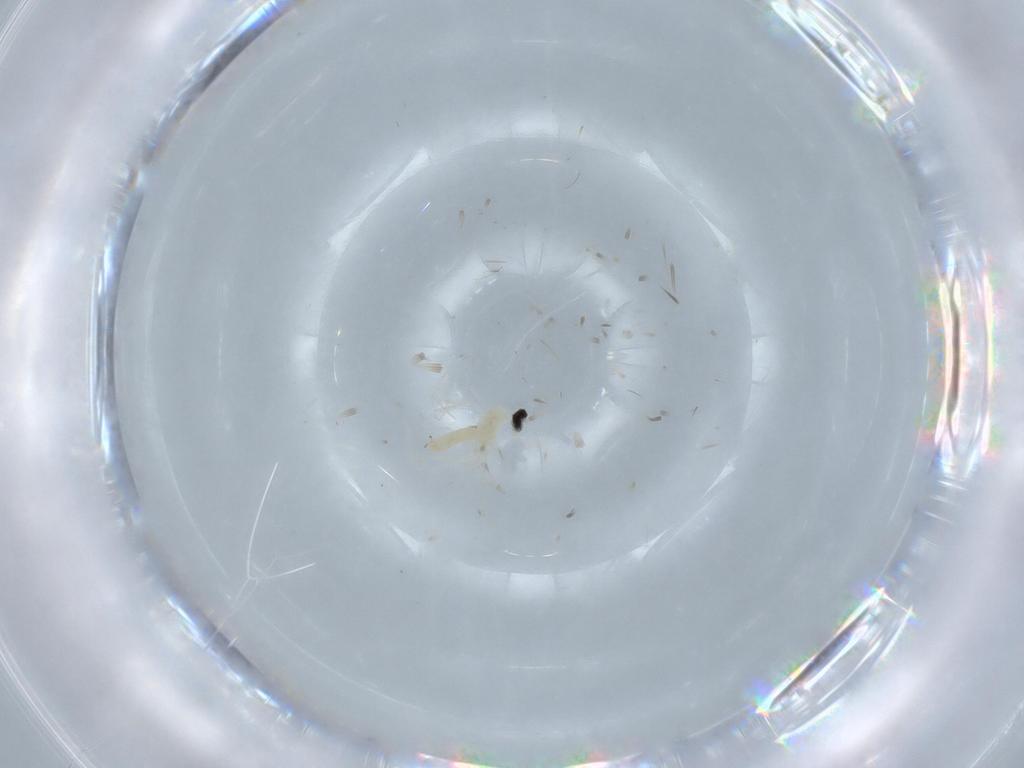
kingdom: Animalia
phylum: Arthropoda
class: Insecta
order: Diptera
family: Cecidomyiidae
